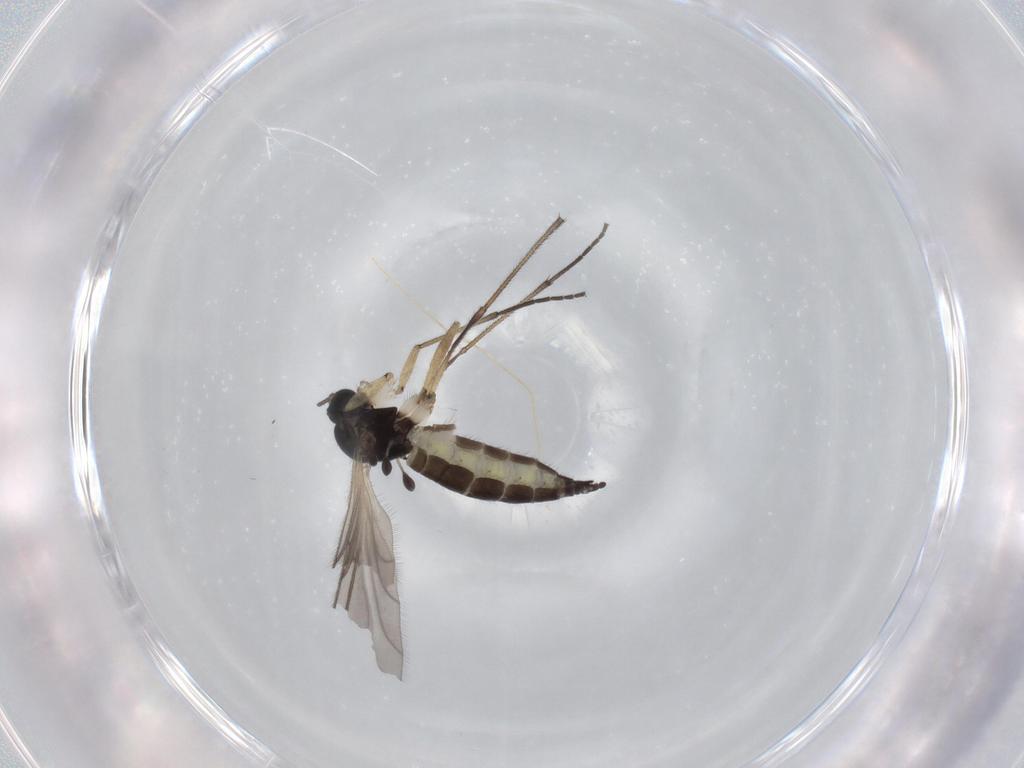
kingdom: Animalia
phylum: Arthropoda
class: Insecta
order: Diptera
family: Sciaridae
